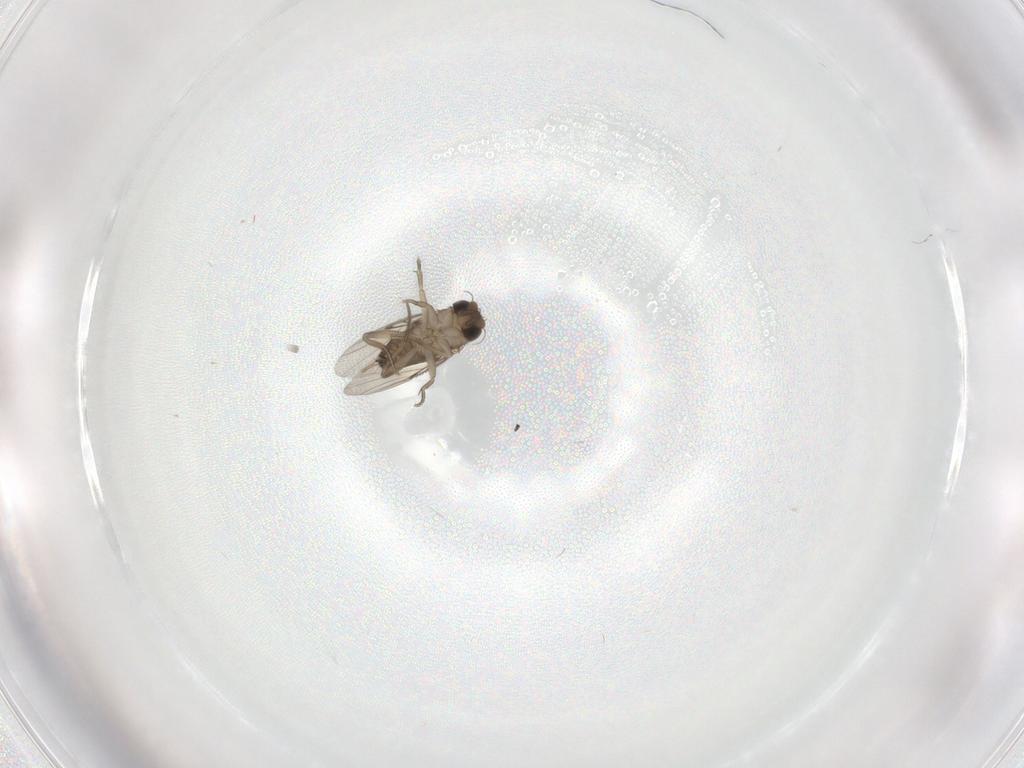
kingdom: Animalia
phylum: Arthropoda
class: Insecta
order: Diptera
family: Phoridae
